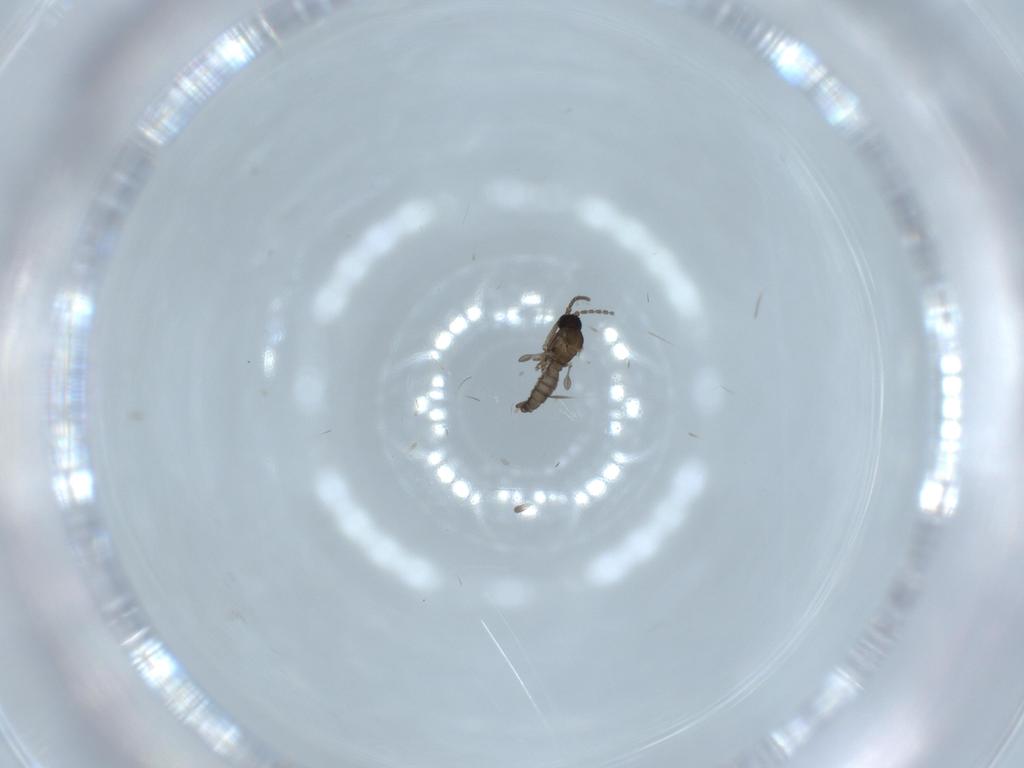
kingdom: Animalia
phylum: Arthropoda
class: Insecta
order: Diptera
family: Sciaridae
